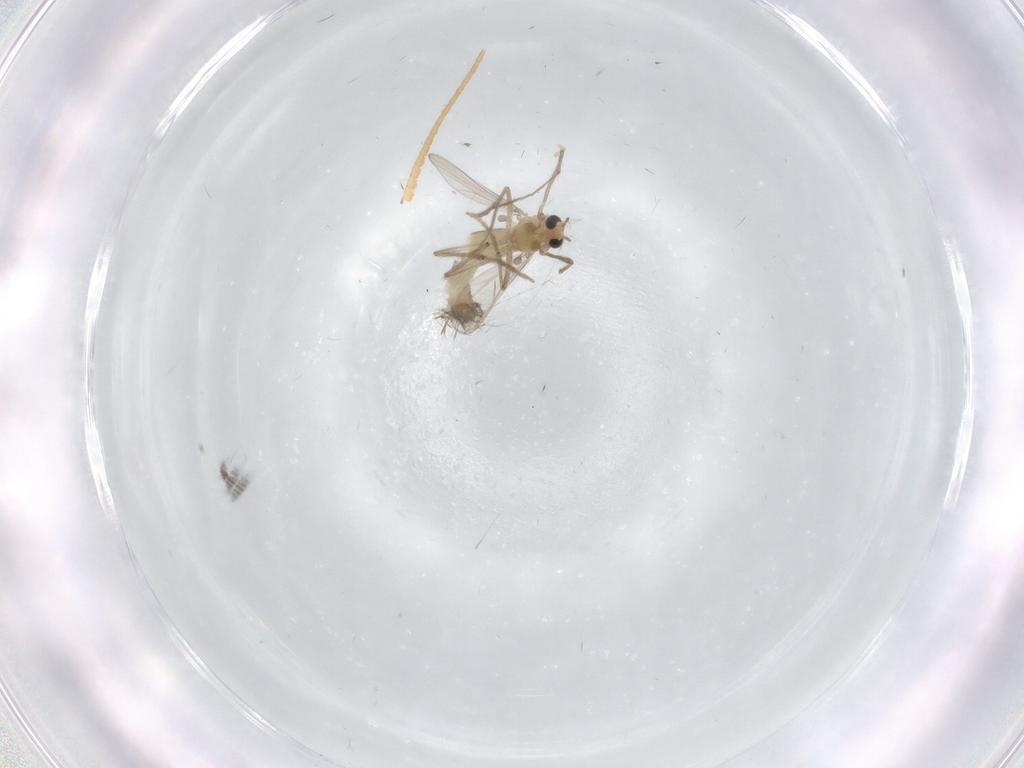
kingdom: Animalia
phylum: Arthropoda
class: Insecta
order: Diptera
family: Chironomidae
